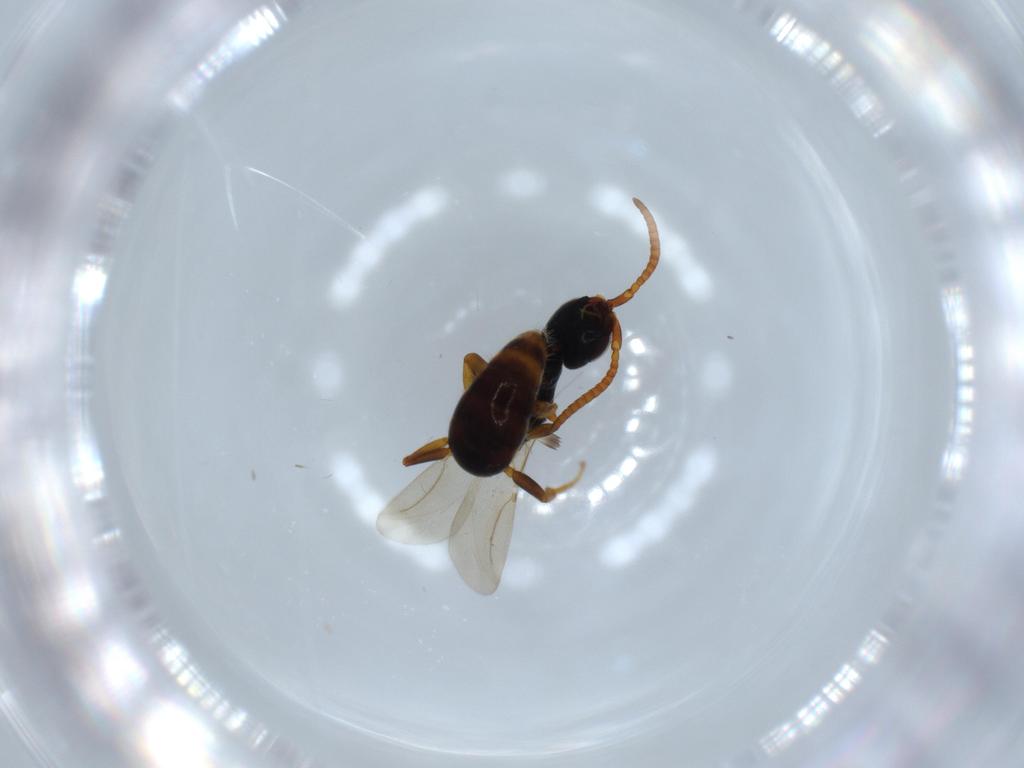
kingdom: Animalia
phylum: Arthropoda
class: Insecta
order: Hymenoptera
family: Bethylidae
